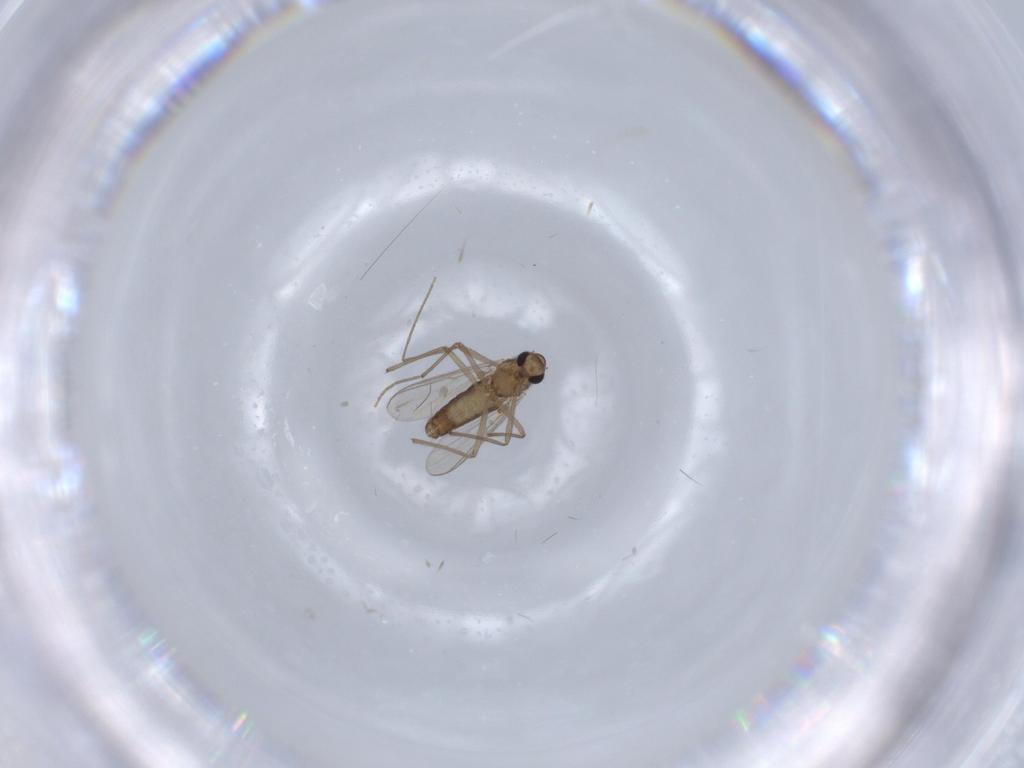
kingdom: Animalia
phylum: Arthropoda
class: Insecta
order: Diptera
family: Chironomidae
